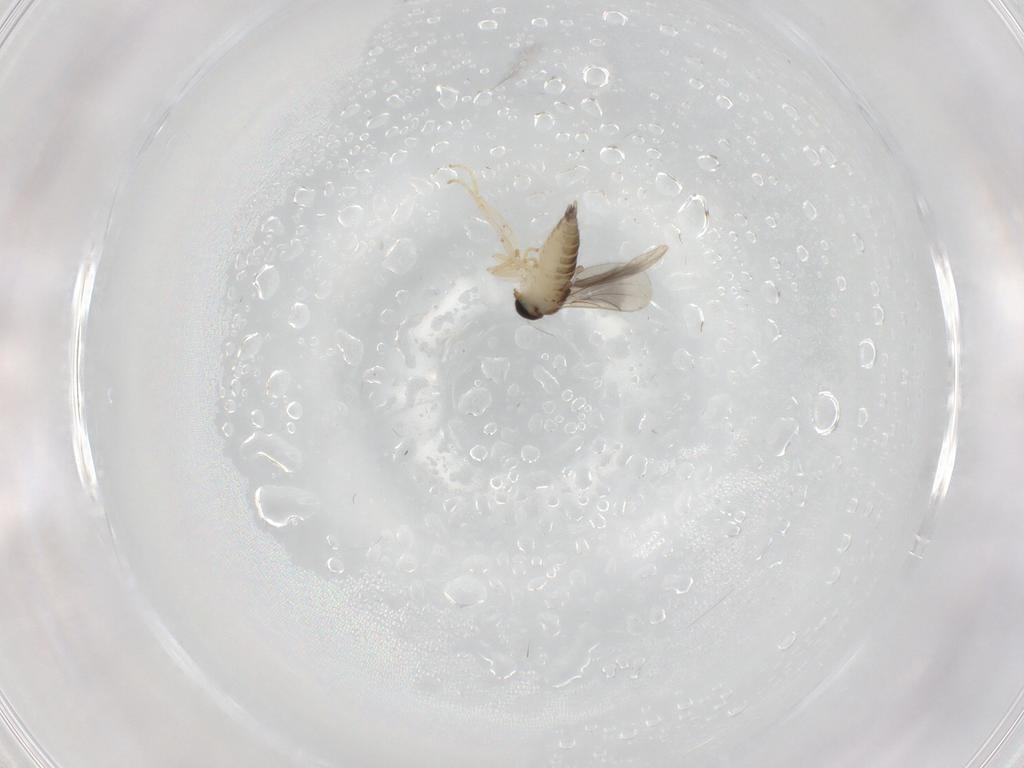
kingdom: Animalia
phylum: Arthropoda
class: Insecta
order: Diptera
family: Hybotidae
